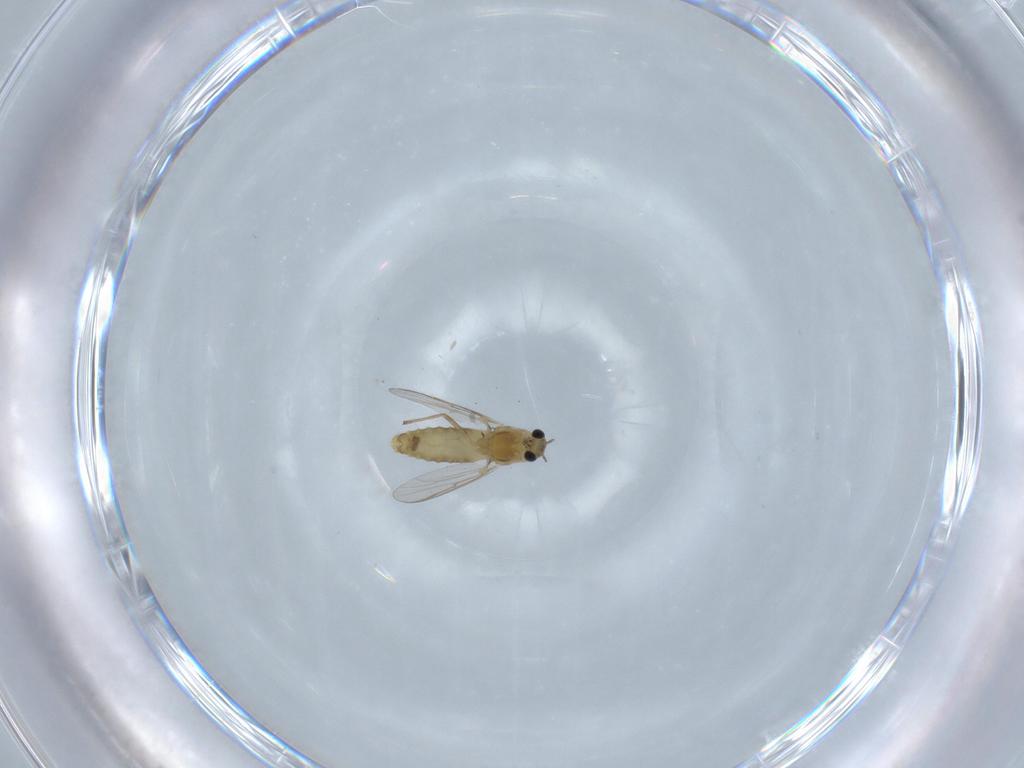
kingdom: Animalia
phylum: Arthropoda
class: Insecta
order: Diptera
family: Chironomidae
